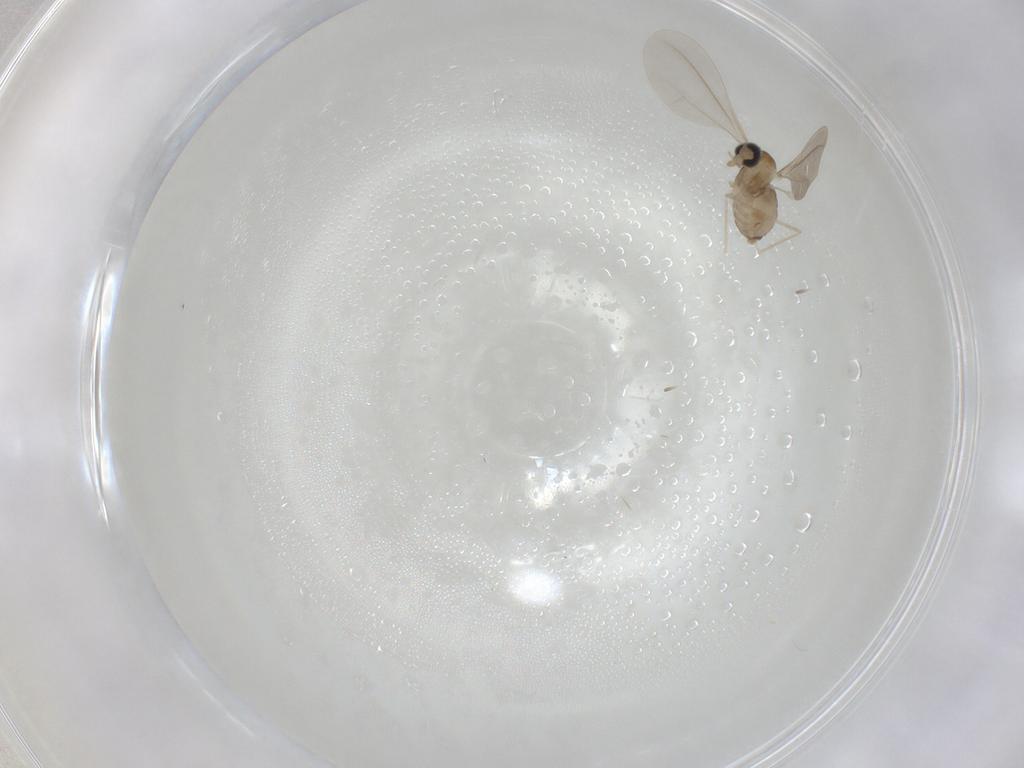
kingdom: Animalia
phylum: Arthropoda
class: Insecta
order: Diptera
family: Cecidomyiidae
